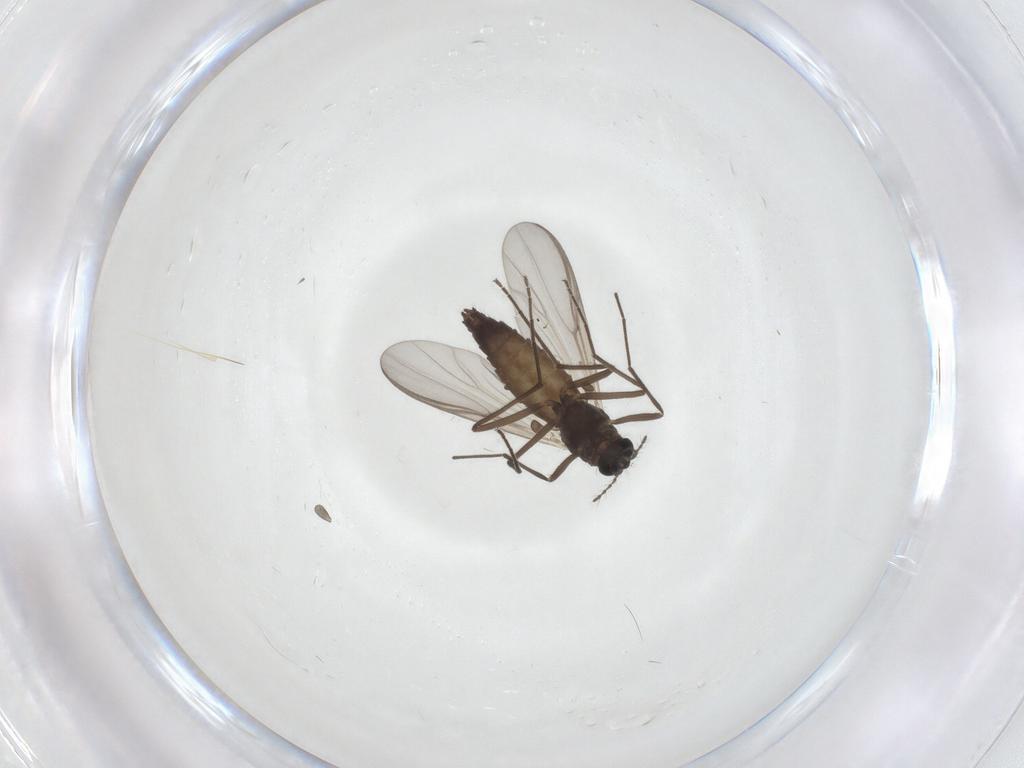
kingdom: Animalia
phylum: Arthropoda
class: Insecta
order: Diptera
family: Chironomidae
